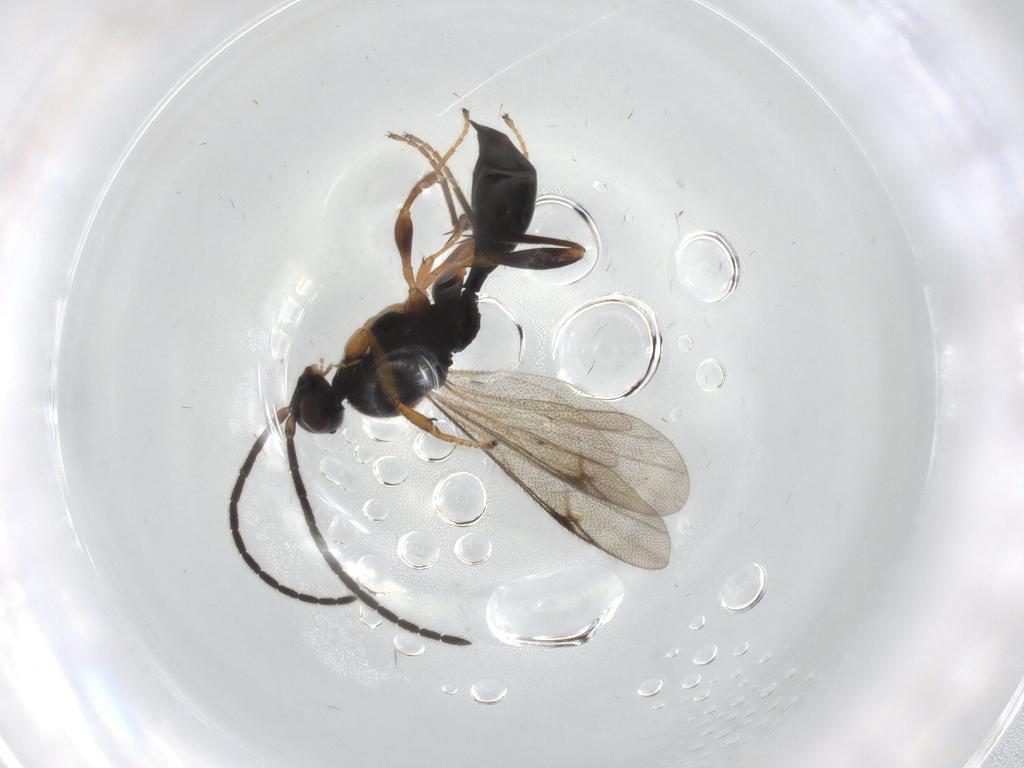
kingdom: Animalia
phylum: Arthropoda
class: Insecta
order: Hymenoptera
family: Proctotrupidae
